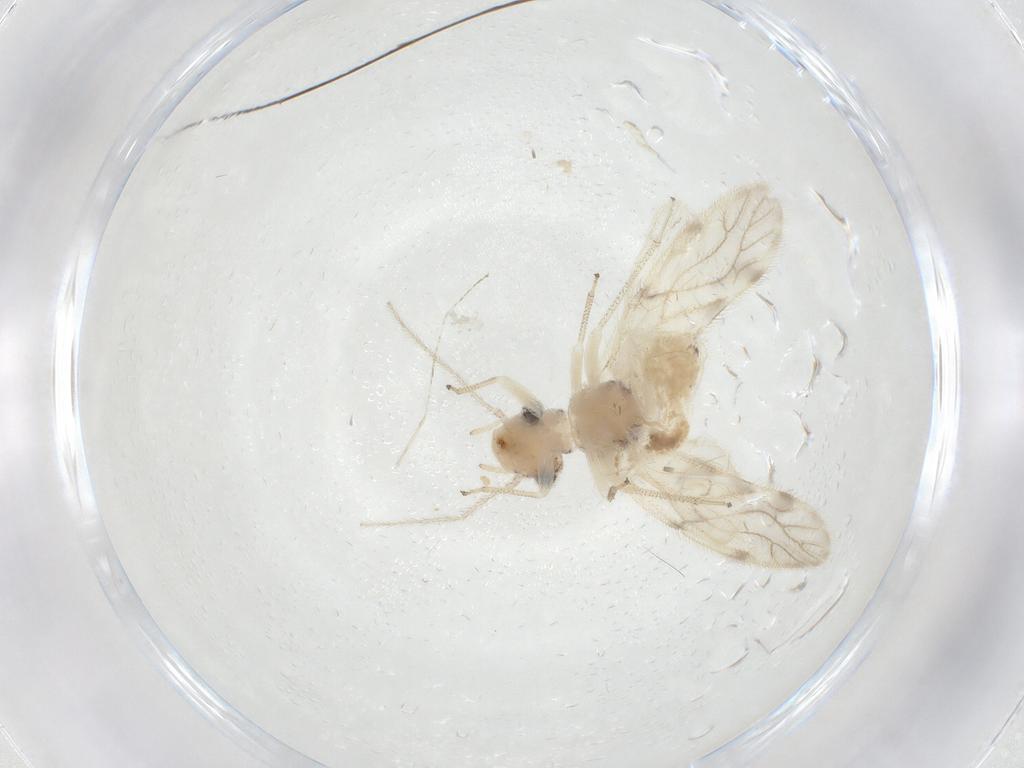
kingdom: Animalia
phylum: Arthropoda
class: Insecta
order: Psocodea
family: Pseudocaeciliidae
